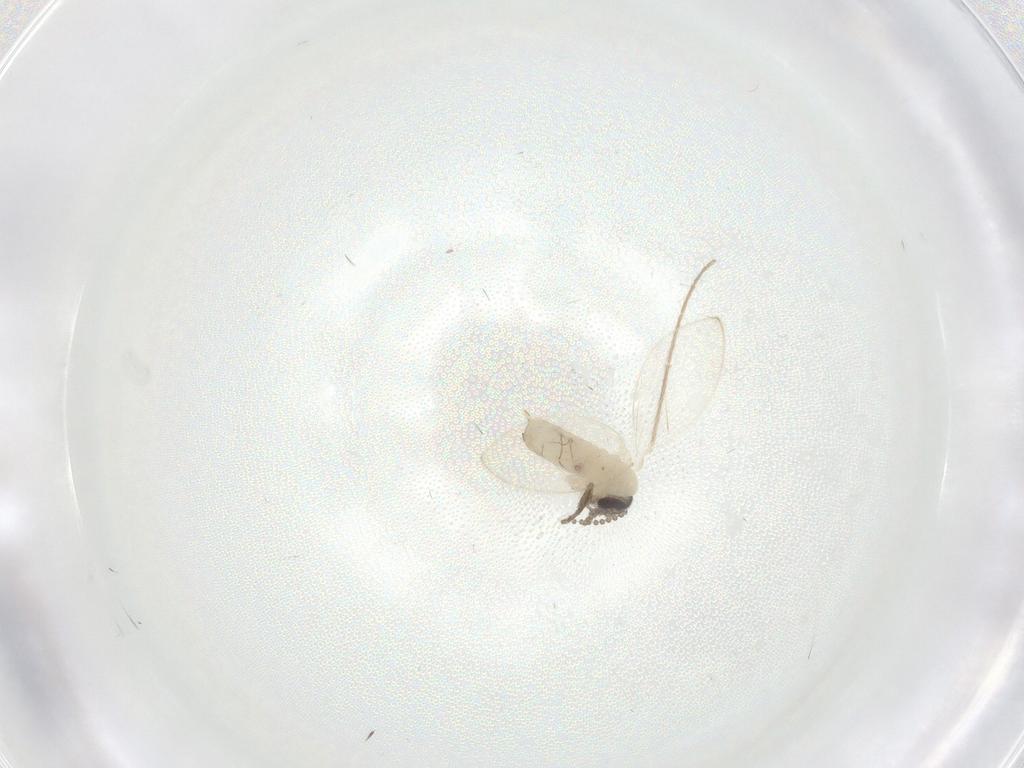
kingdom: Animalia
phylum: Arthropoda
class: Insecta
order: Diptera
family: Psychodidae
